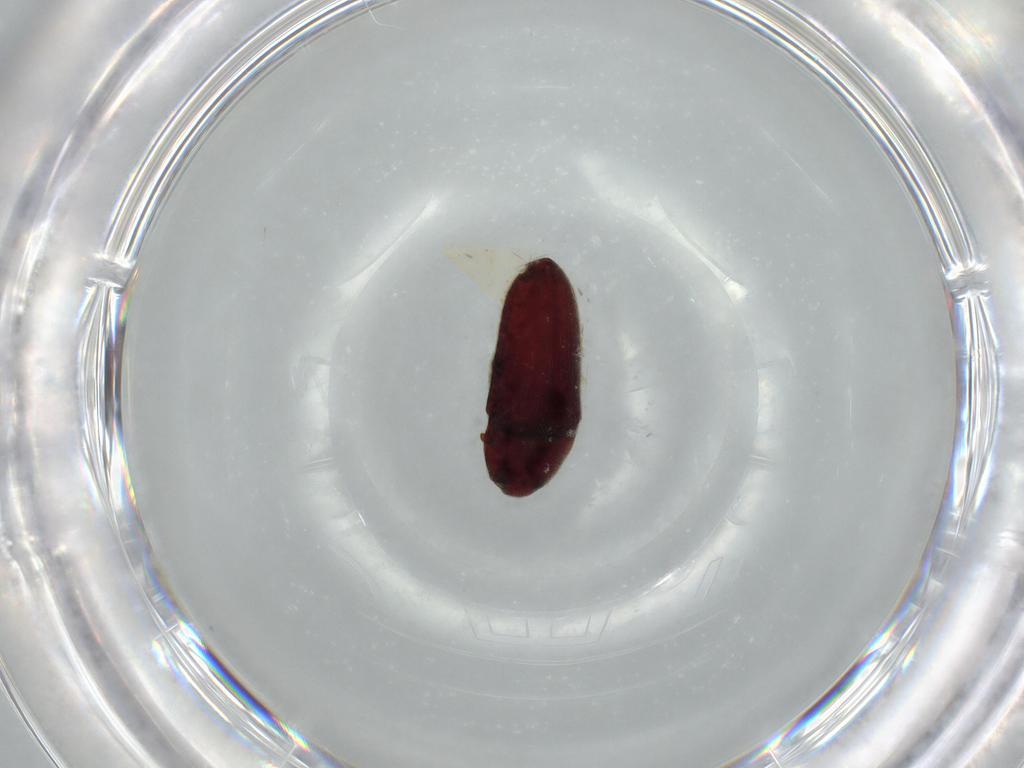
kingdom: Animalia
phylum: Arthropoda
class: Insecta
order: Coleoptera
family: Throscidae
